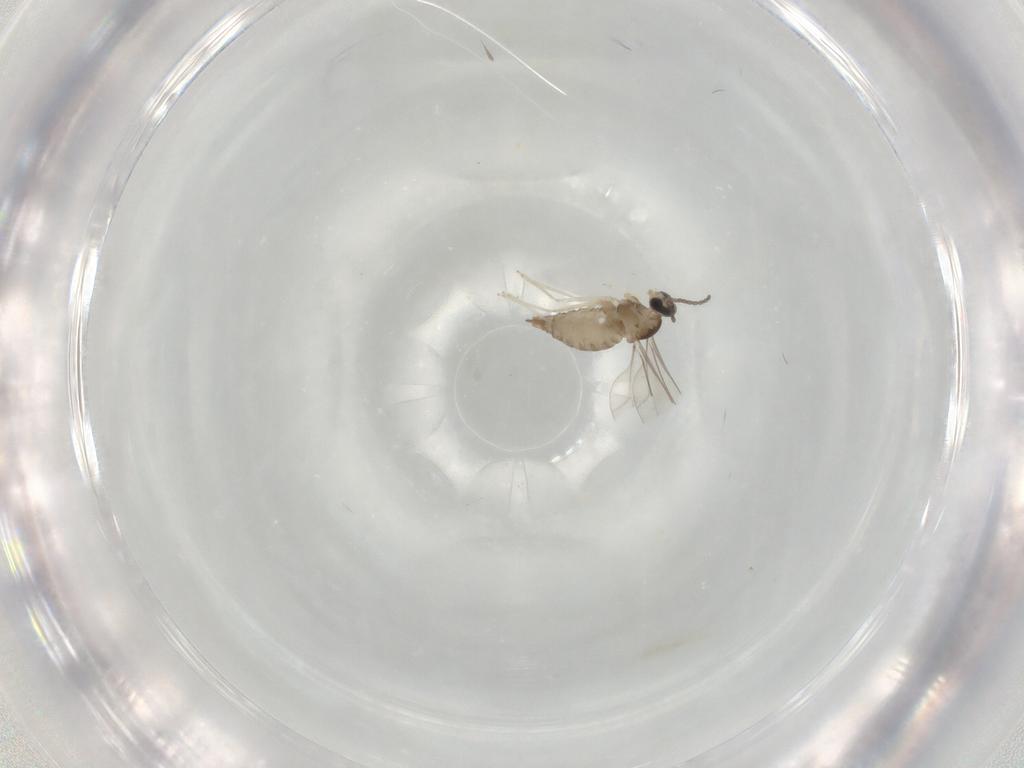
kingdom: Animalia
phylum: Arthropoda
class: Insecta
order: Diptera
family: Cecidomyiidae
